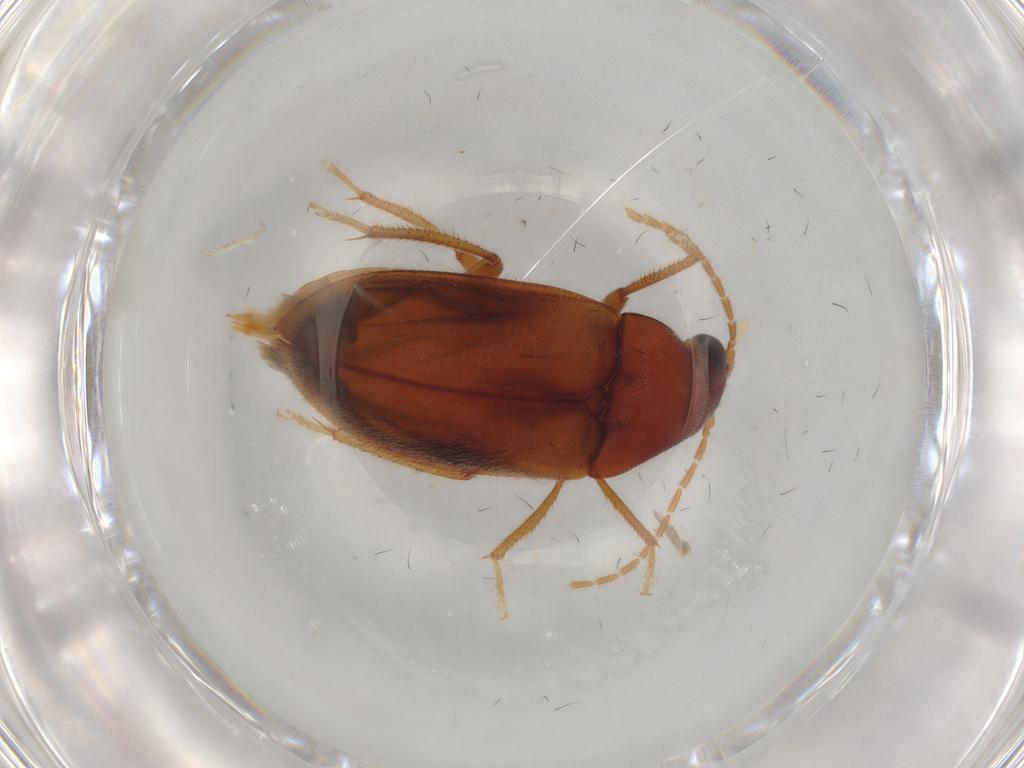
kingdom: Animalia
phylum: Arthropoda
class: Insecta
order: Coleoptera
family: Ptilodactylidae
